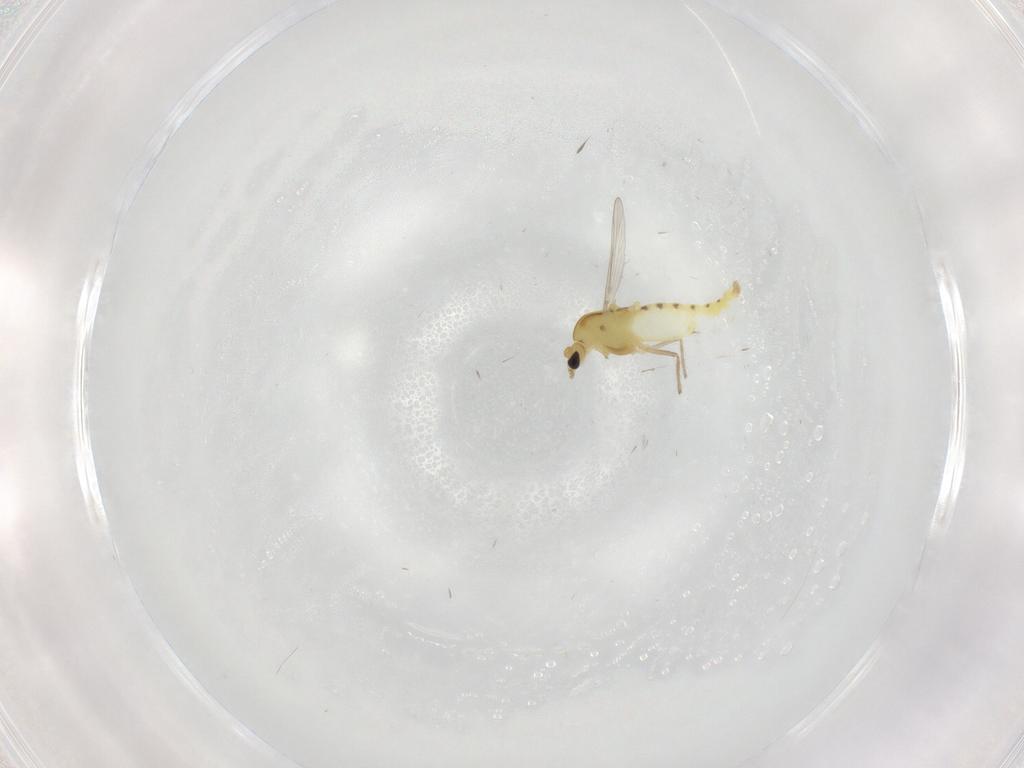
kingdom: Animalia
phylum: Arthropoda
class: Insecta
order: Diptera
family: Chironomidae
